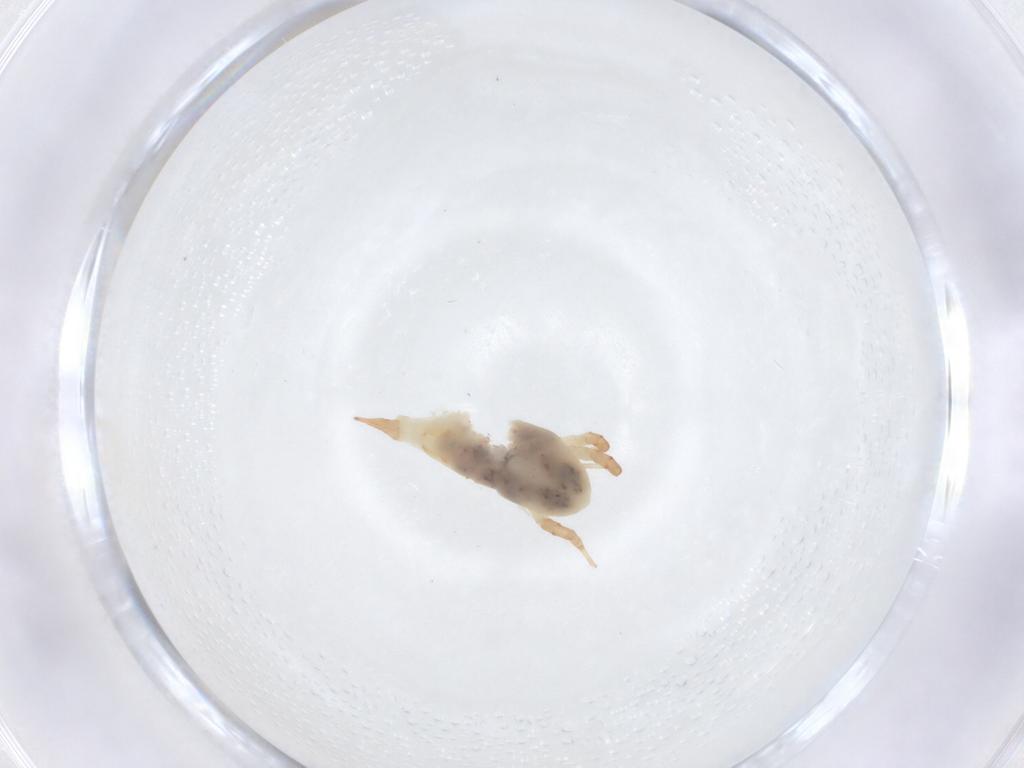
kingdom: Animalia
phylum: Arthropoda
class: Arachnida
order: Trombidiformes
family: Bdellidae
